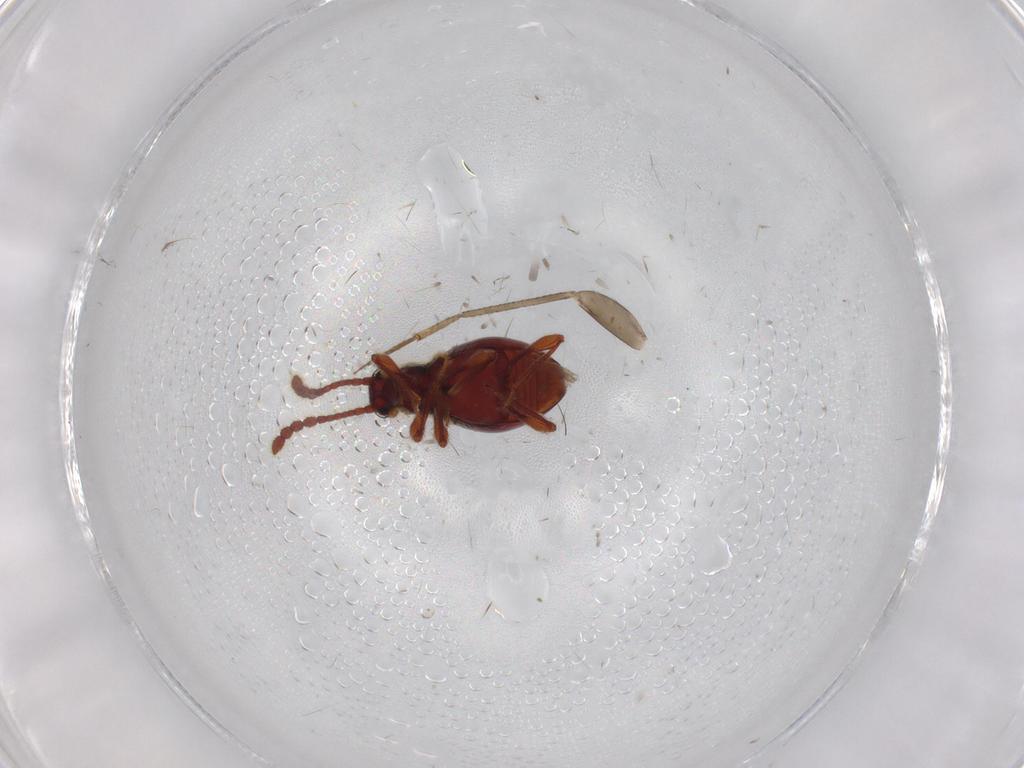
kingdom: Animalia
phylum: Arthropoda
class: Insecta
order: Coleoptera
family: Staphylinidae
